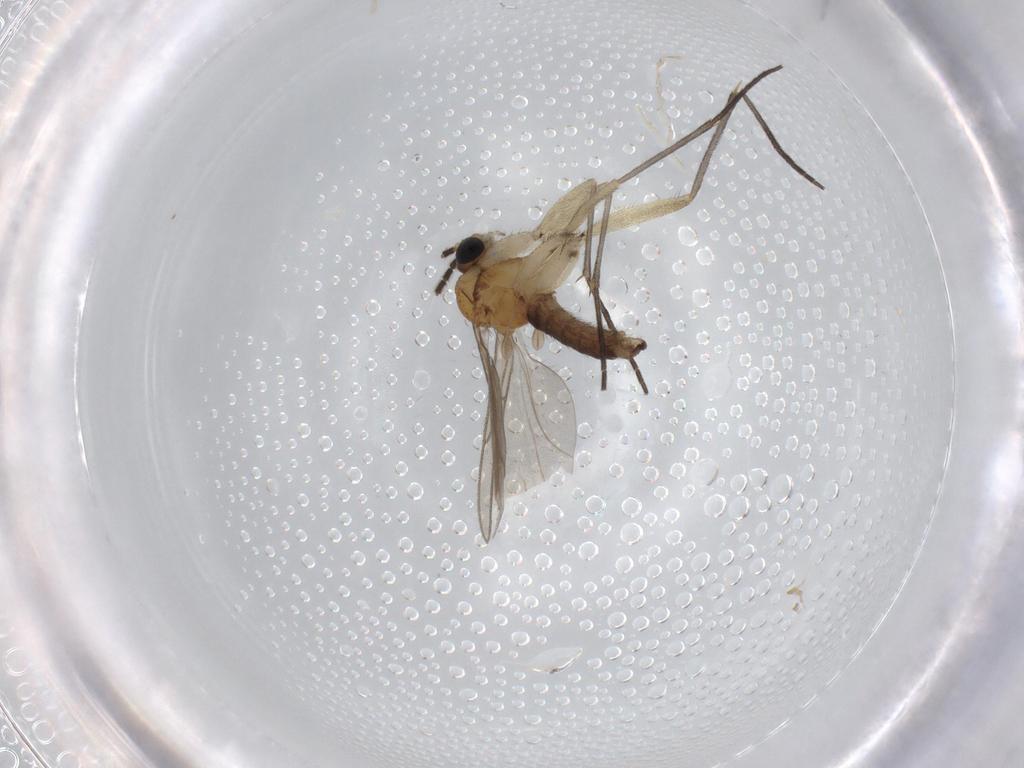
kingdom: Animalia
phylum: Arthropoda
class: Insecta
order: Diptera
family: Sciaridae
